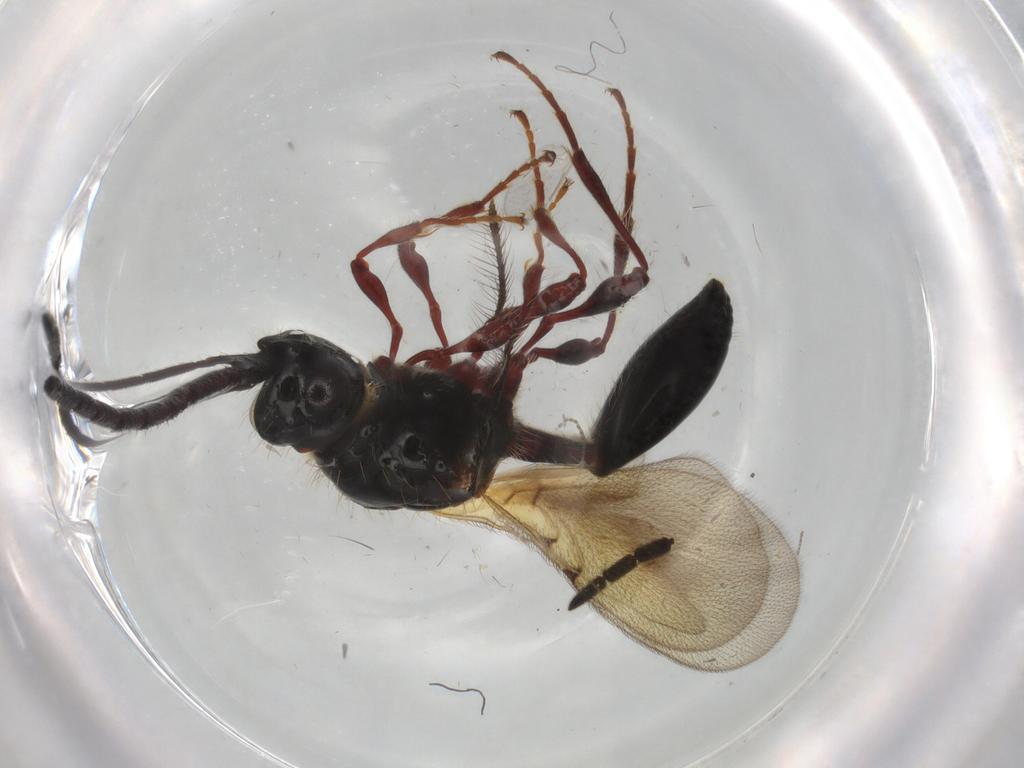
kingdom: Animalia
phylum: Arthropoda
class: Insecta
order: Hymenoptera
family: Diapriidae
